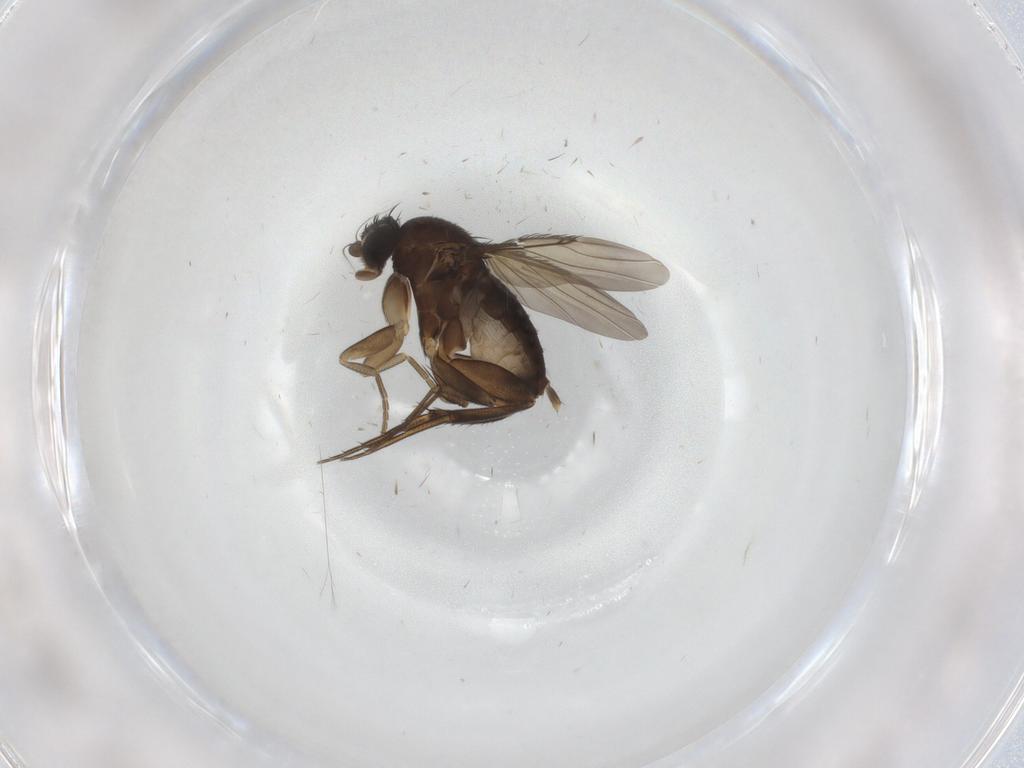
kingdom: Animalia
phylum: Arthropoda
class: Insecta
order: Diptera
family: Phoridae
